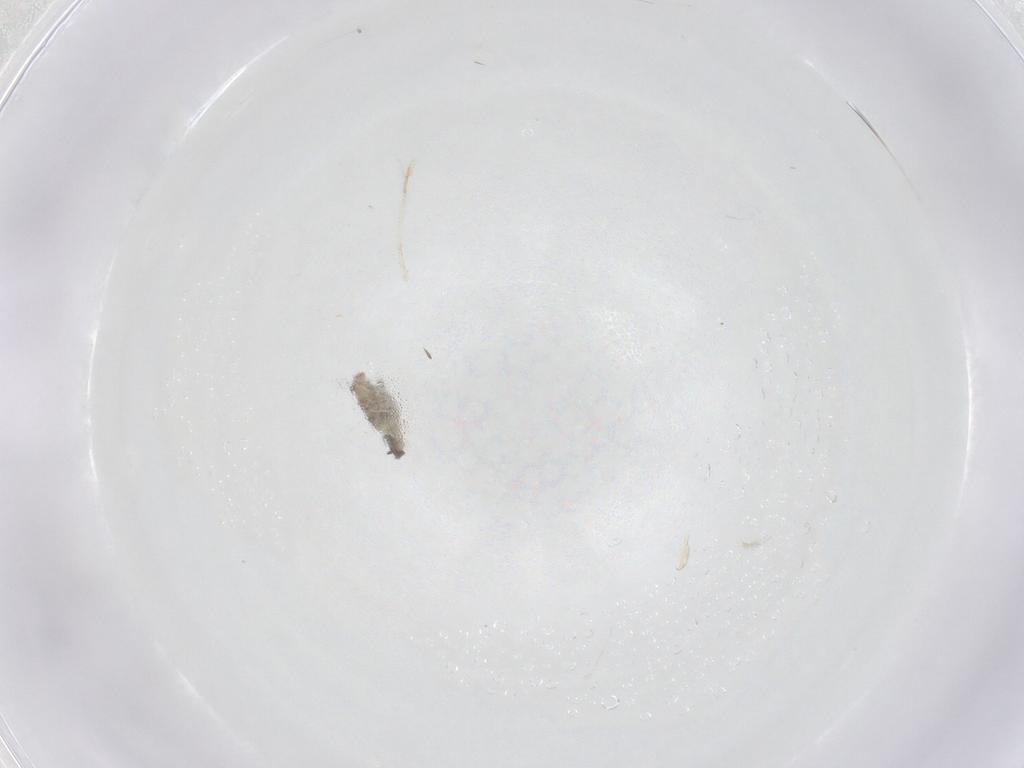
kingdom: Animalia
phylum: Arthropoda
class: Insecta
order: Orthoptera
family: Gryllidae
